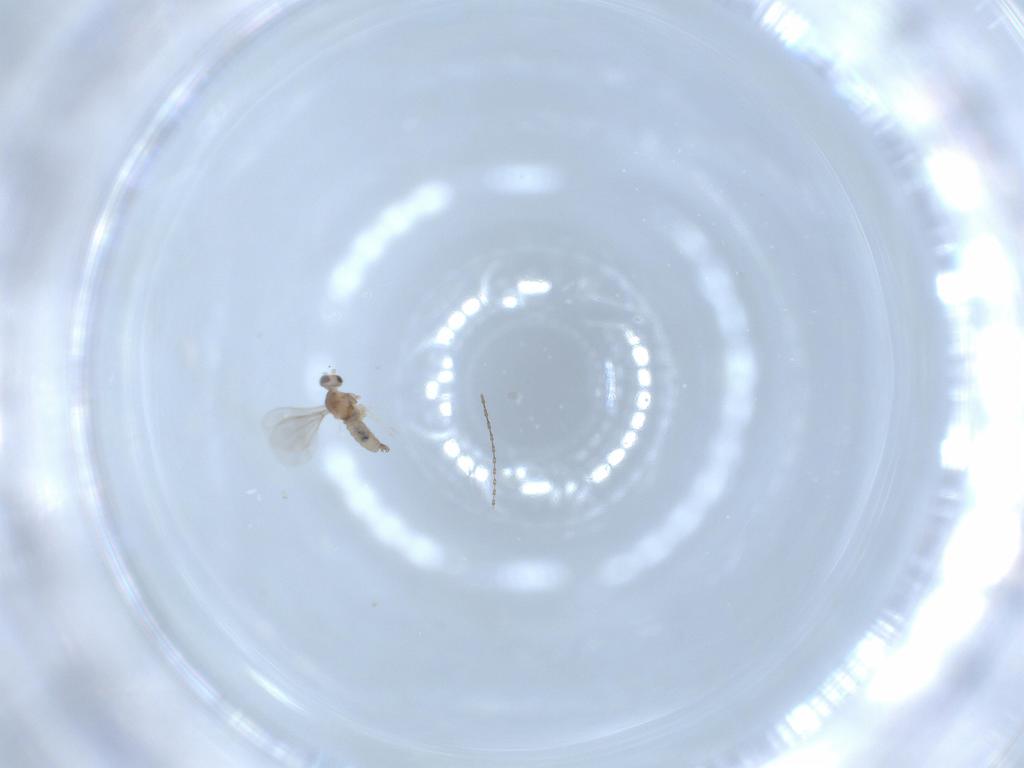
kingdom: Animalia
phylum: Arthropoda
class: Insecta
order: Diptera
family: Cecidomyiidae
